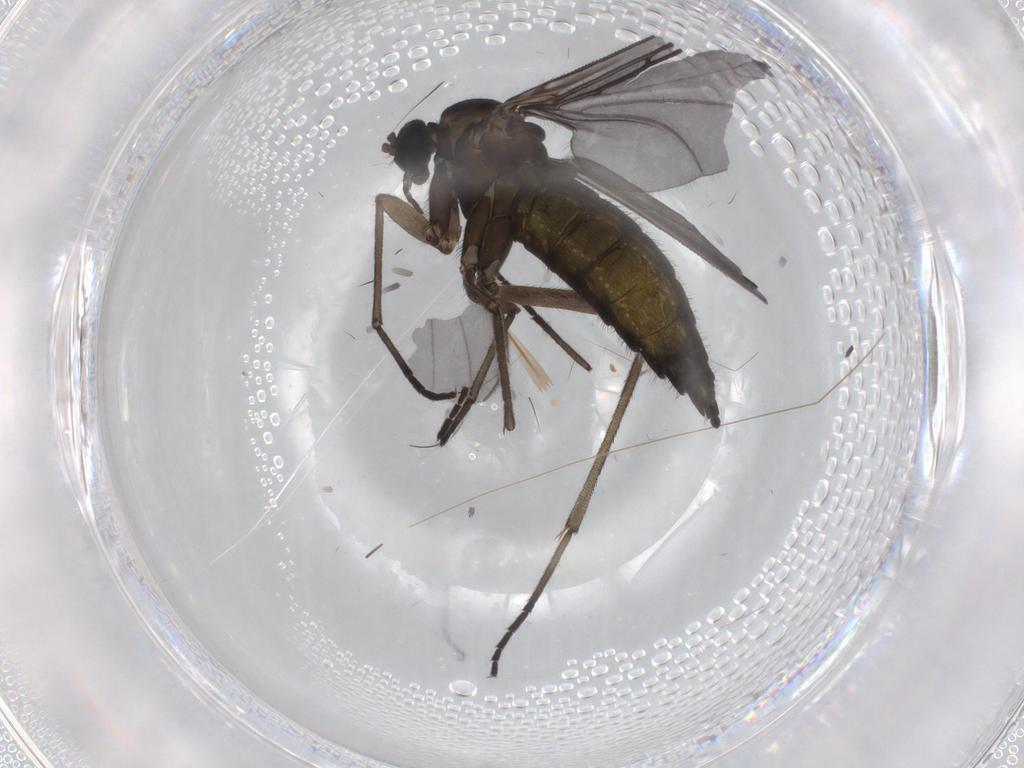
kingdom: Animalia
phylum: Arthropoda
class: Insecta
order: Diptera
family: Sciaridae
